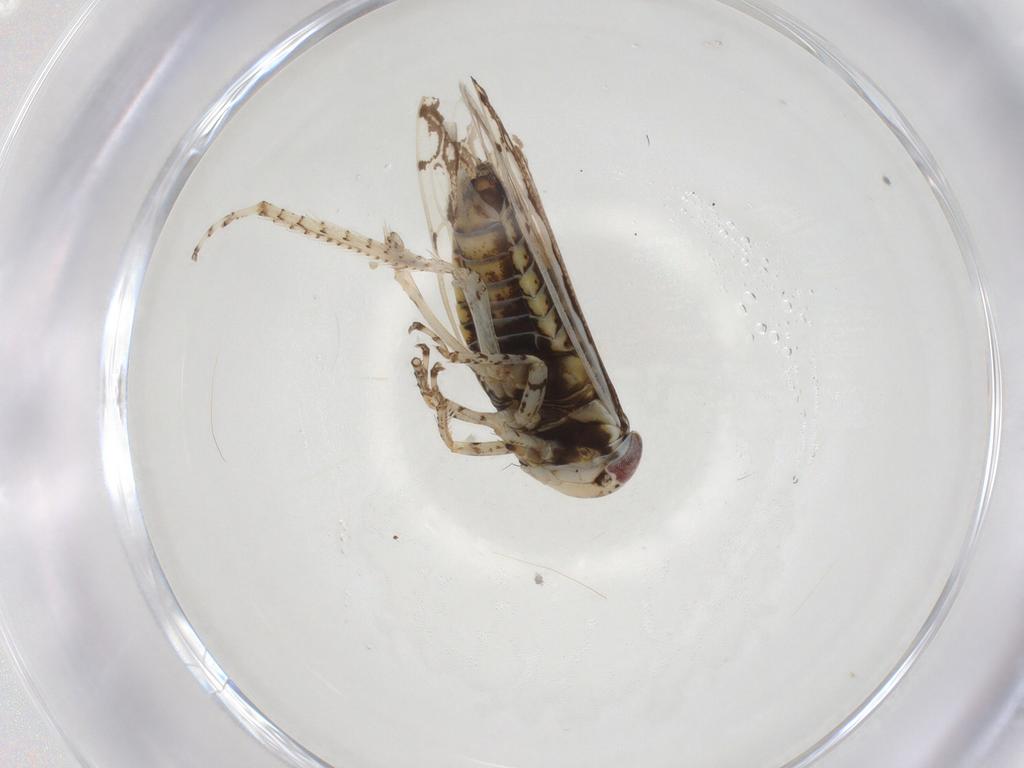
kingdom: Animalia
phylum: Arthropoda
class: Insecta
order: Hemiptera
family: Cicadellidae
